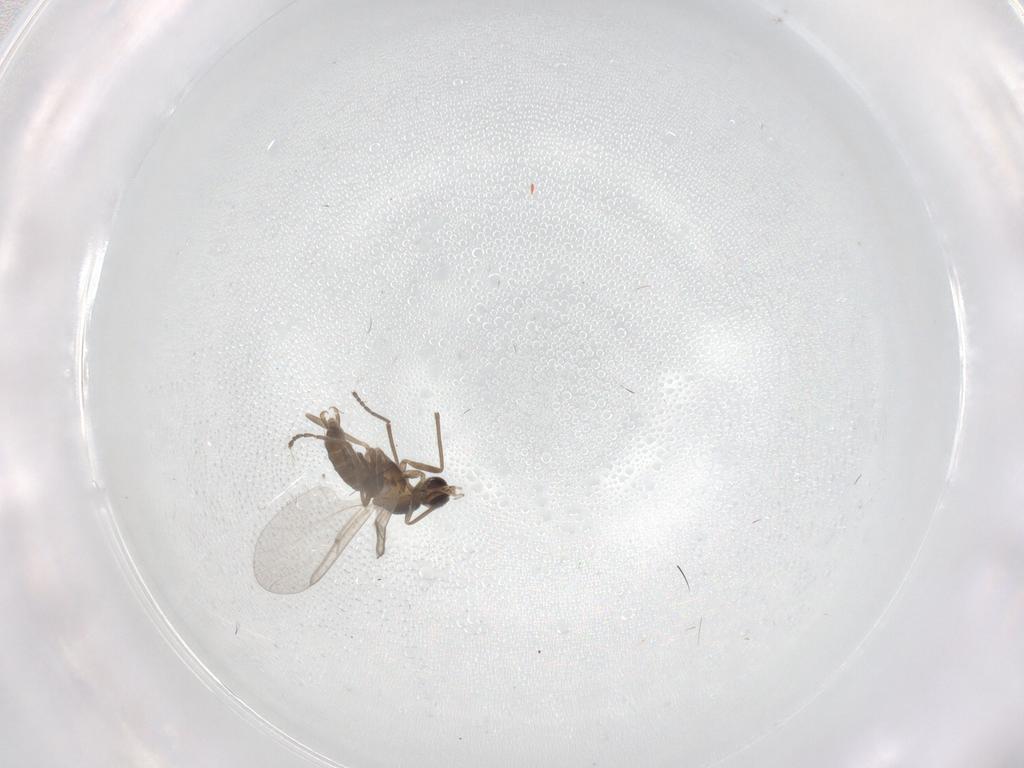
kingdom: Animalia
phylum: Arthropoda
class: Insecta
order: Diptera
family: Cecidomyiidae
